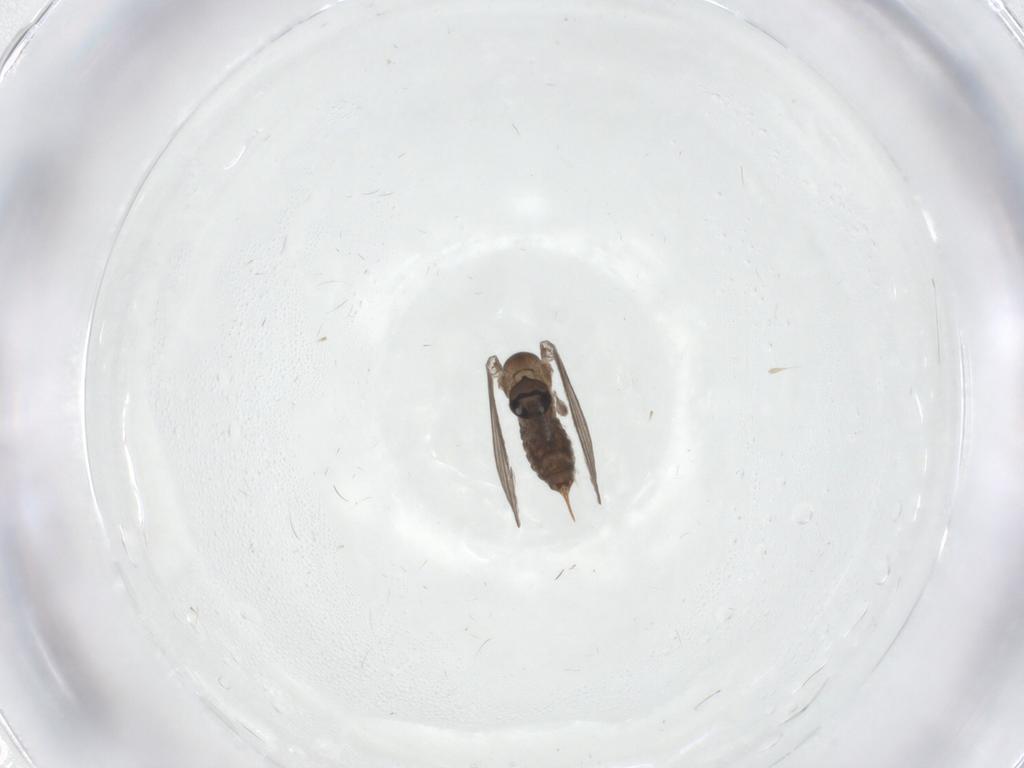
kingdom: Animalia
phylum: Arthropoda
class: Insecta
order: Diptera
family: Psychodidae
